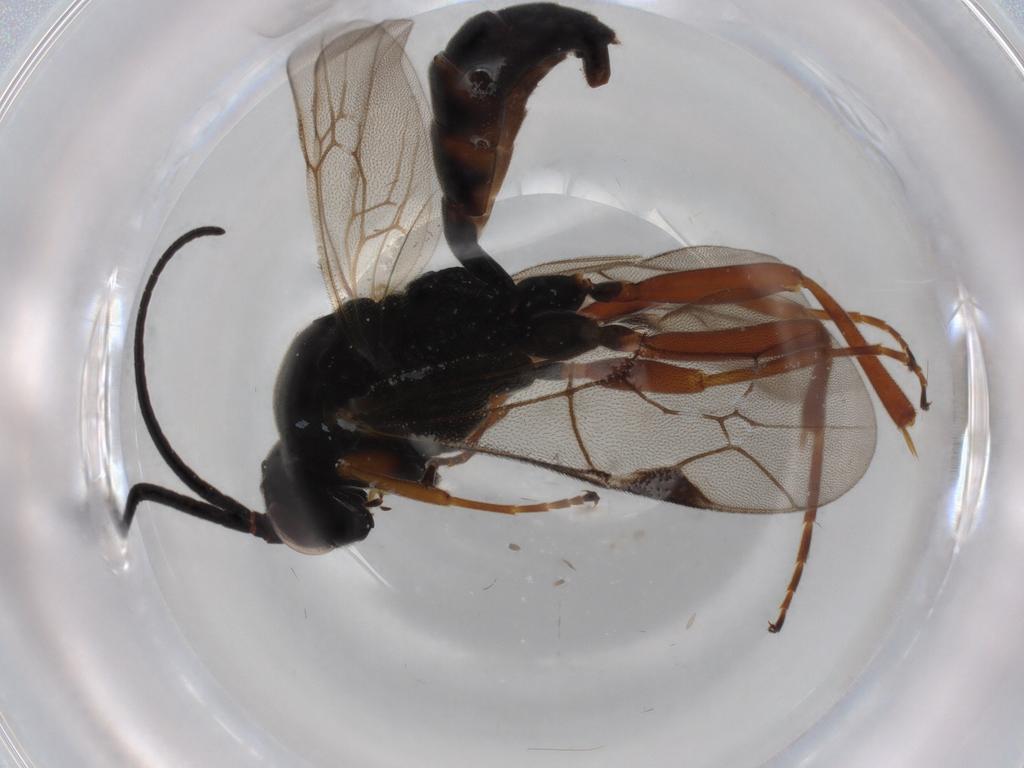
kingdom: Animalia
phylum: Arthropoda
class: Insecta
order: Hymenoptera
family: Braconidae
